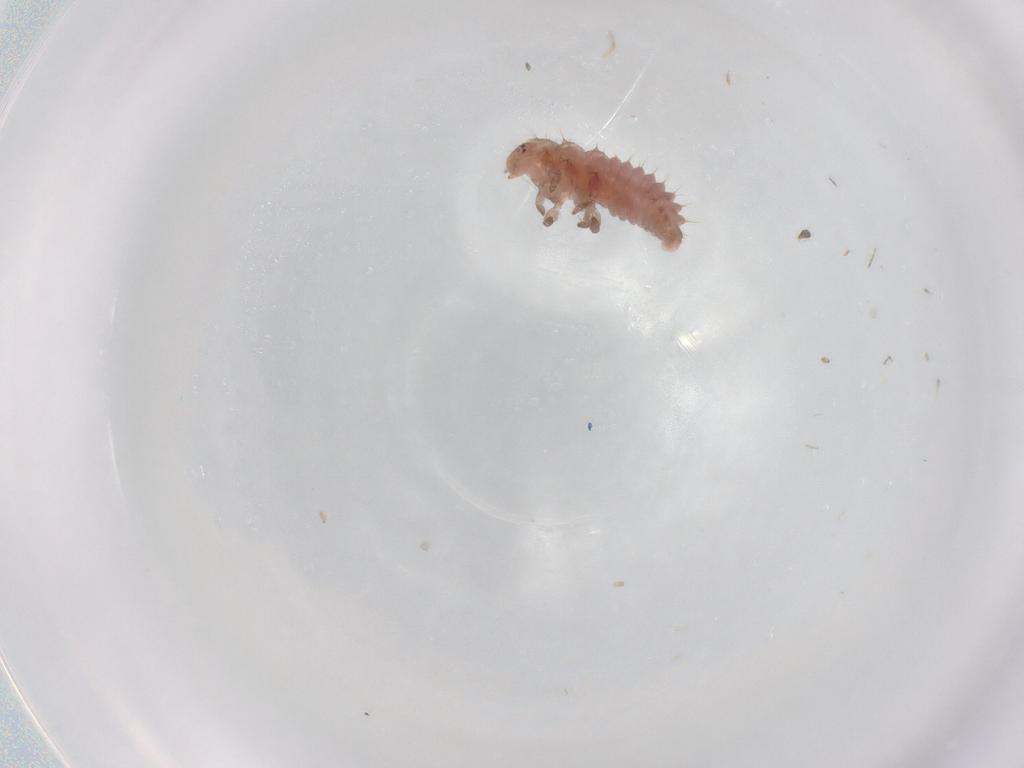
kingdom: Animalia
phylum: Arthropoda
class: Insecta
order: Coleoptera
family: Coccinellidae
